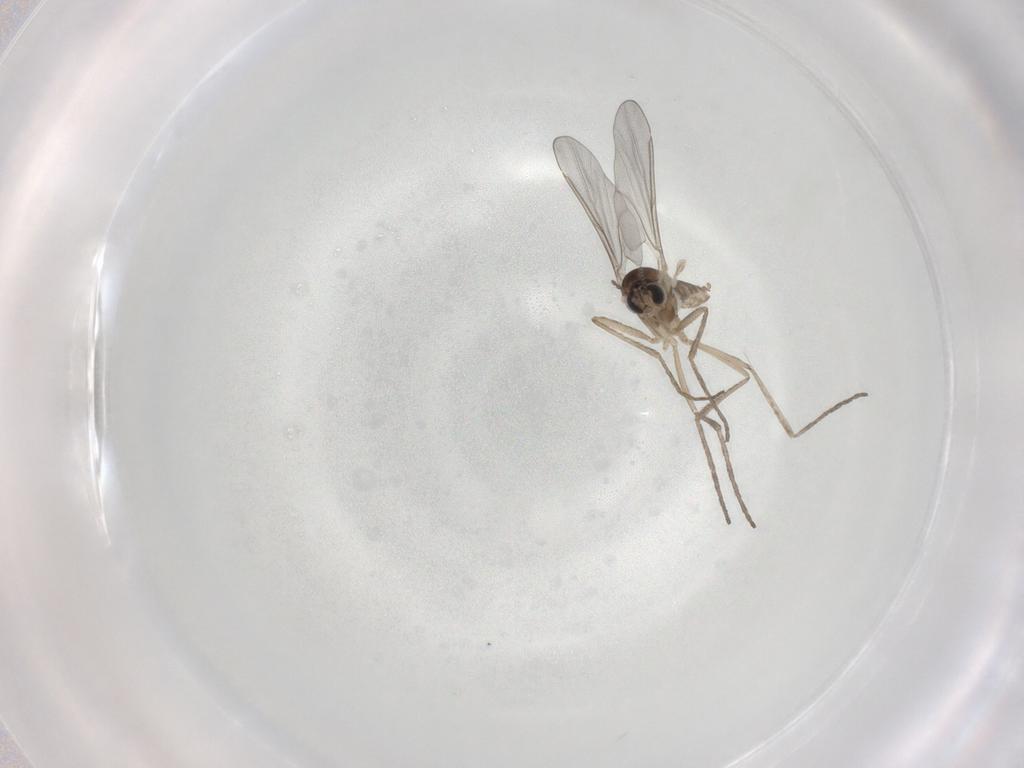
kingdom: Animalia
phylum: Arthropoda
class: Insecta
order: Diptera
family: Cecidomyiidae
